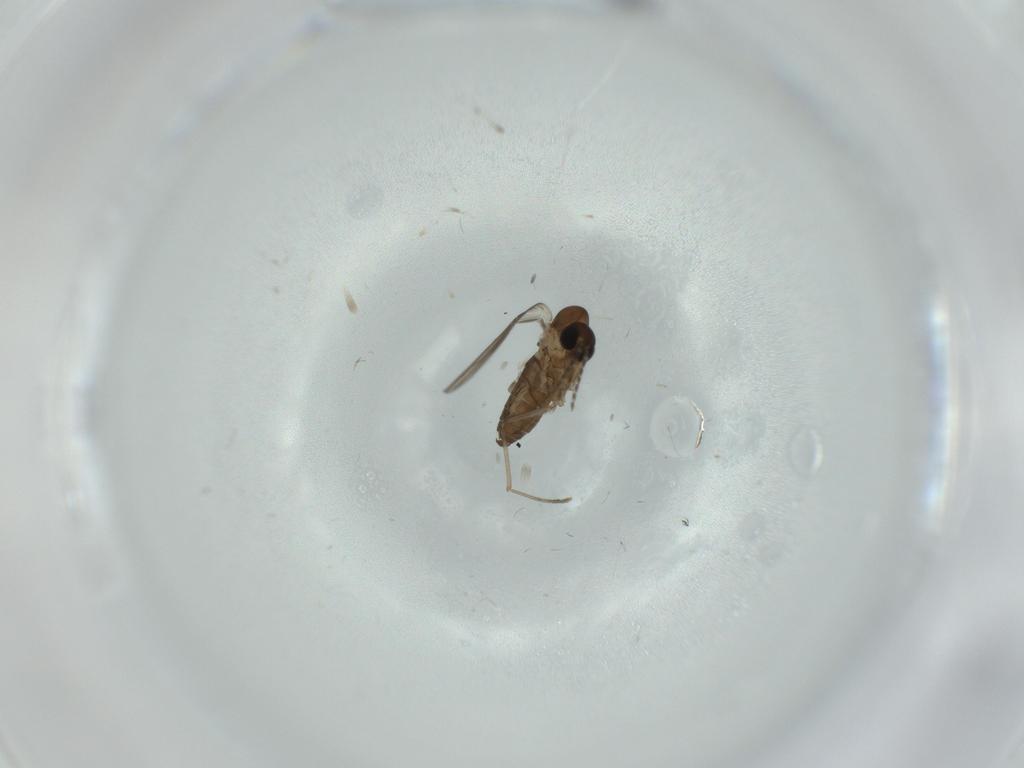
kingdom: Animalia
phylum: Arthropoda
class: Insecta
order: Diptera
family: Psychodidae
